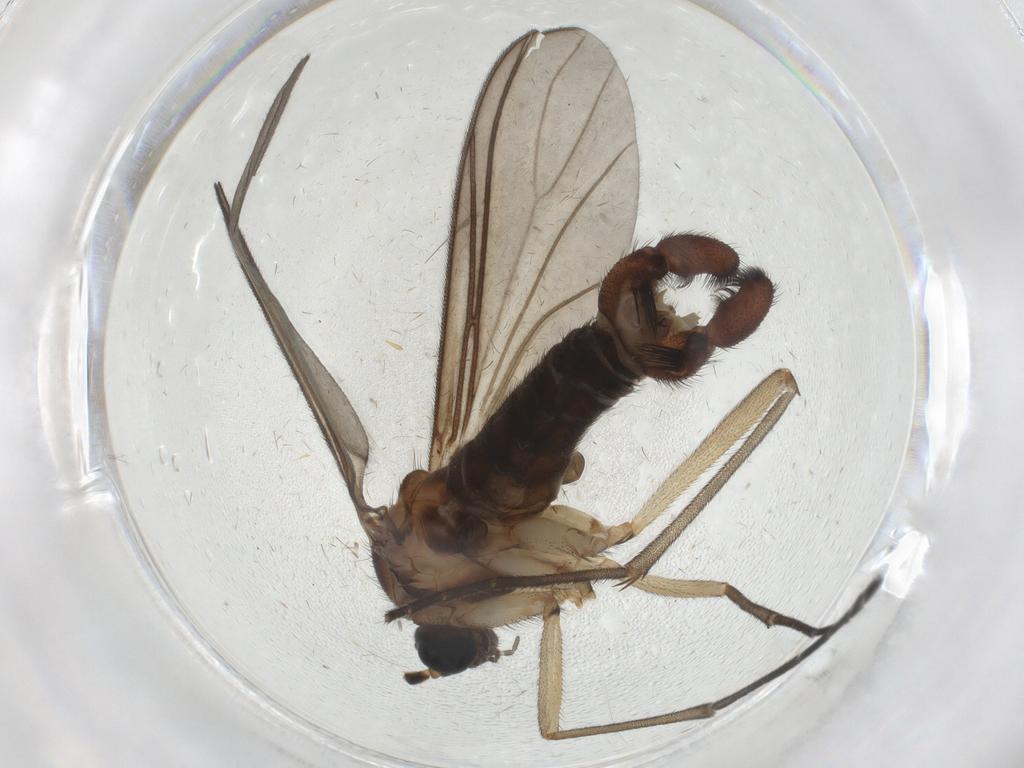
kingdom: Animalia
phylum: Arthropoda
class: Insecta
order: Diptera
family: Sciaridae
